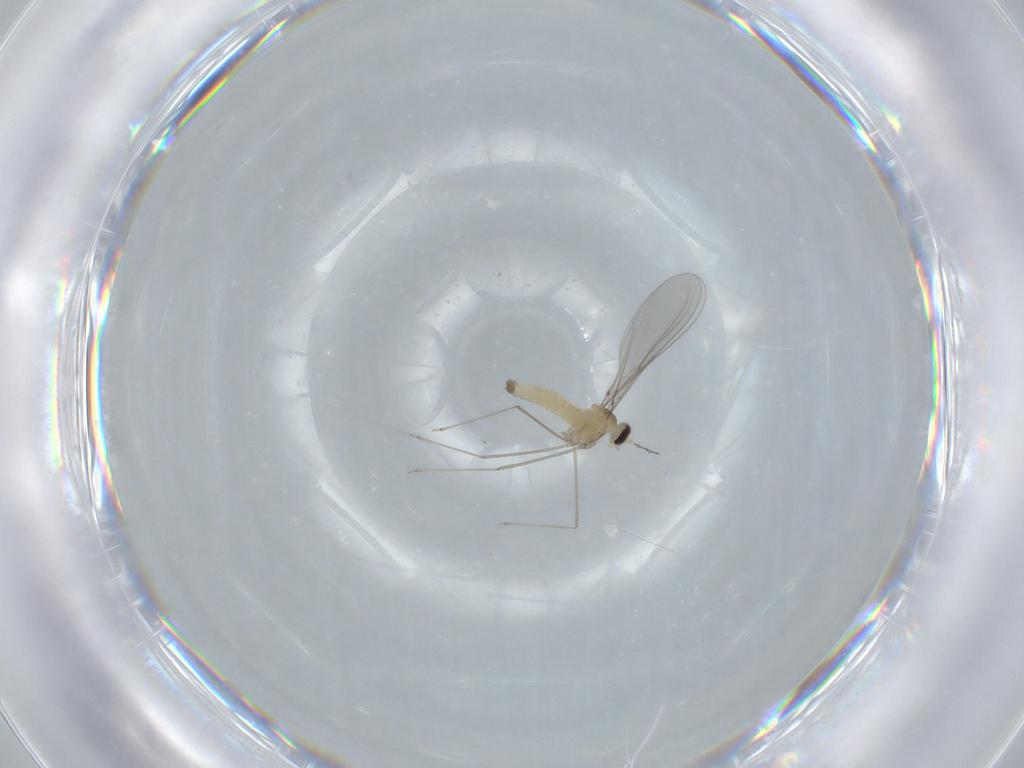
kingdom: Animalia
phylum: Arthropoda
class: Insecta
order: Diptera
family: Cecidomyiidae
